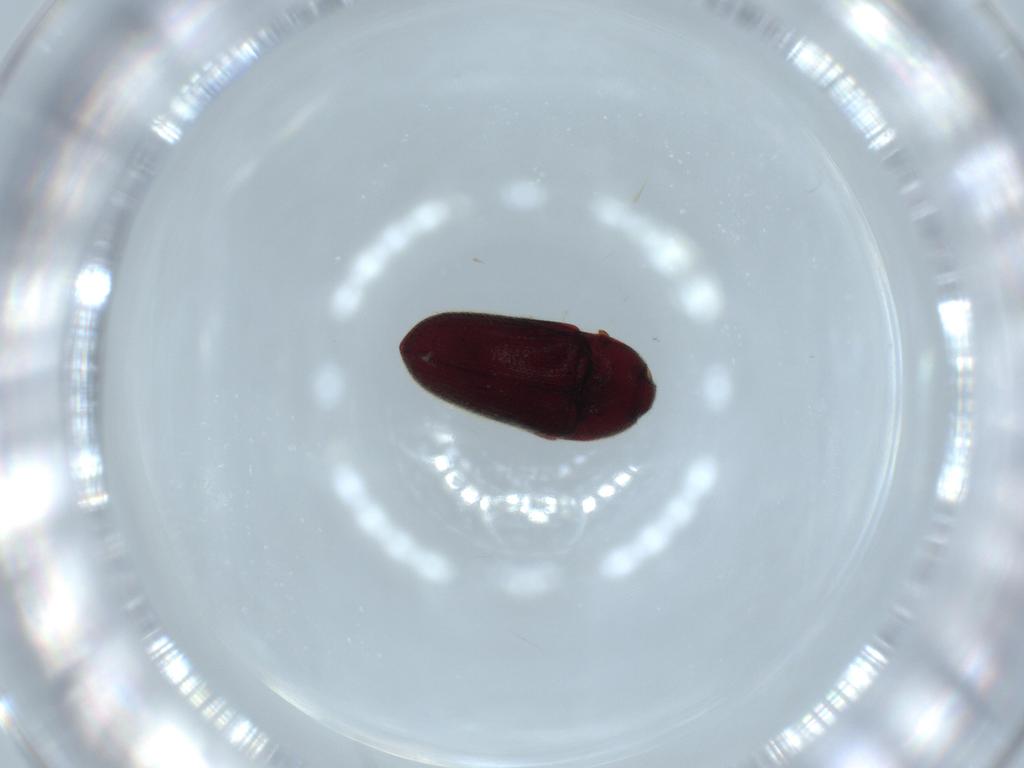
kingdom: Animalia
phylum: Arthropoda
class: Insecta
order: Coleoptera
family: Throscidae
